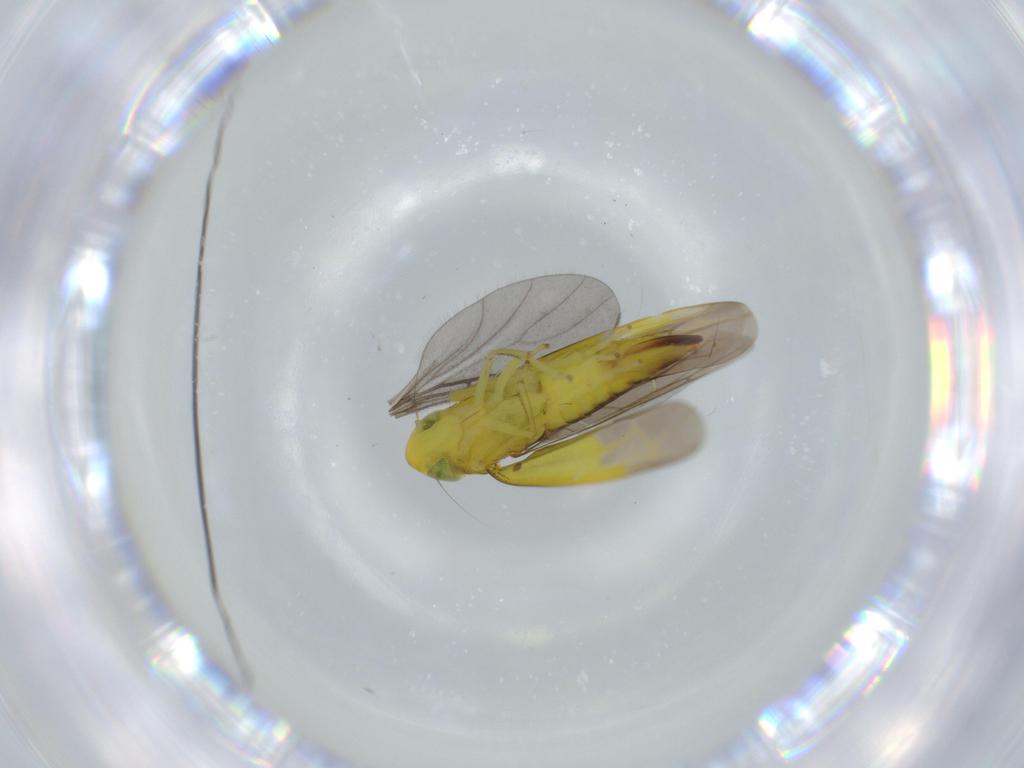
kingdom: Animalia
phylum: Arthropoda
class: Insecta
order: Hemiptera
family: Cicadellidae
